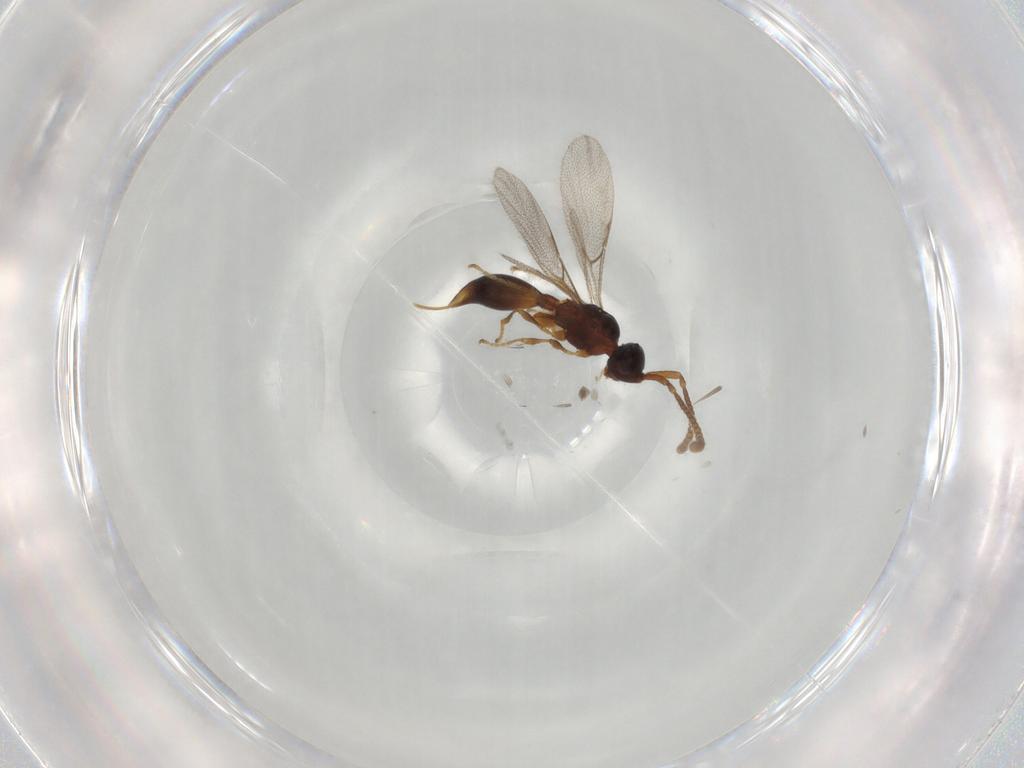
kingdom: Animalia
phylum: Arthropoda
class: Insecta
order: Hymenoptera
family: Braconidae
